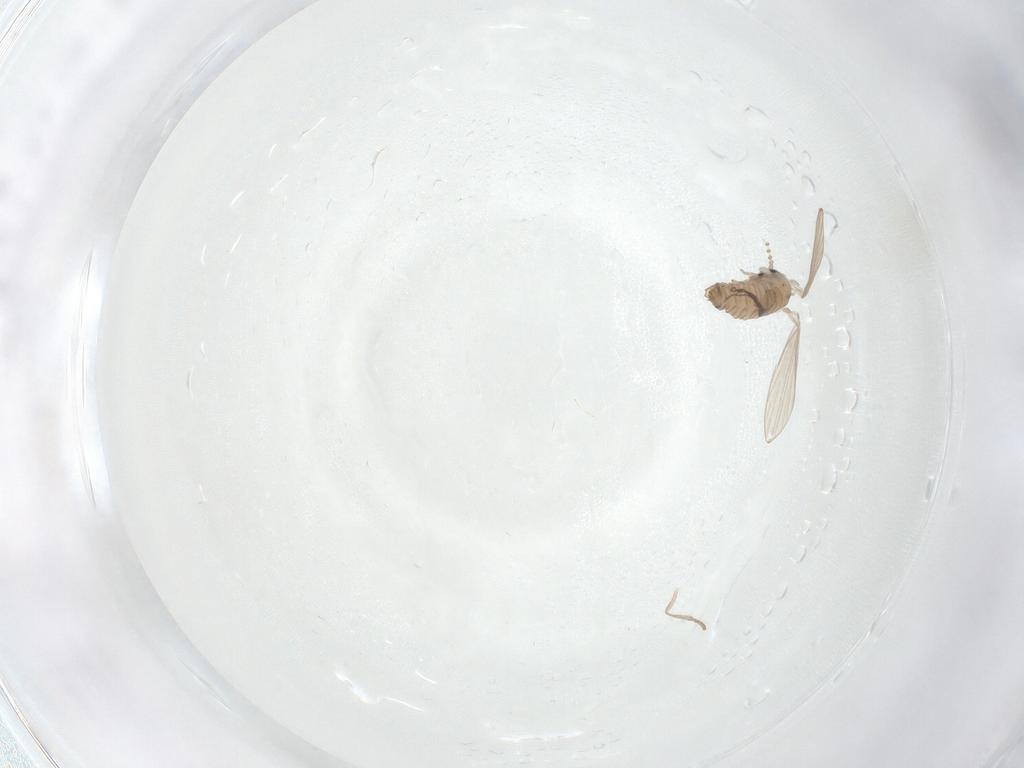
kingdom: Animalia
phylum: Arthropoda
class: Insecta
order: Diptera
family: Psychodidae
